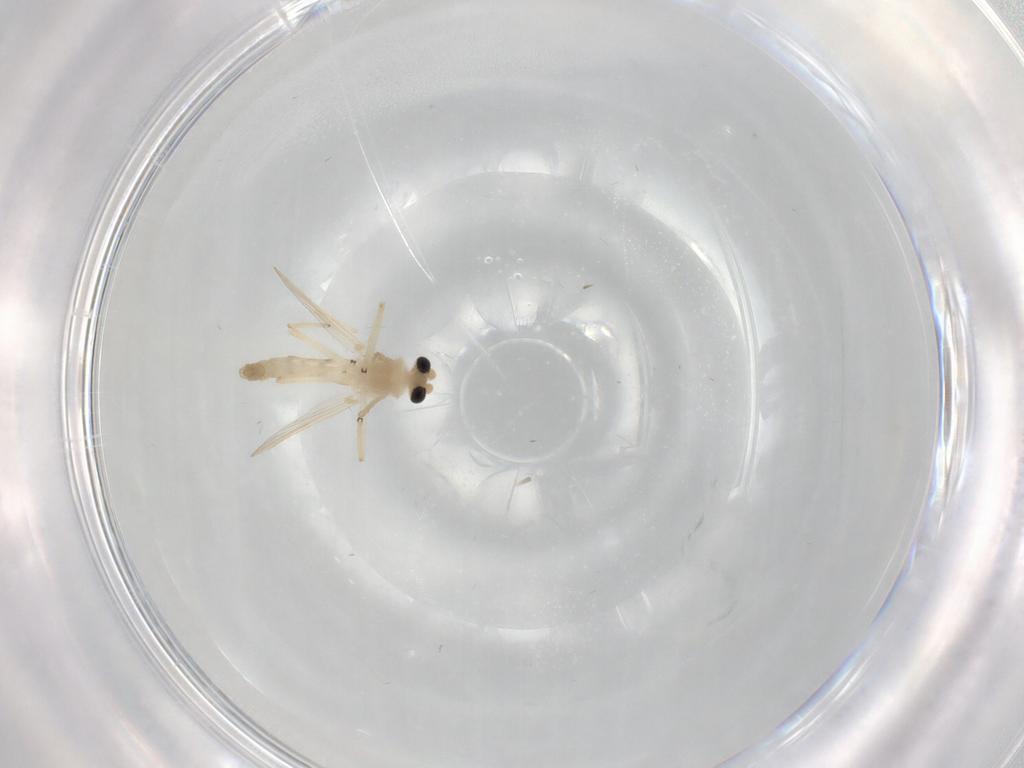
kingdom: Animalia
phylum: Arthropoda
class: Insecta
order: Diptera
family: Chironomidae
